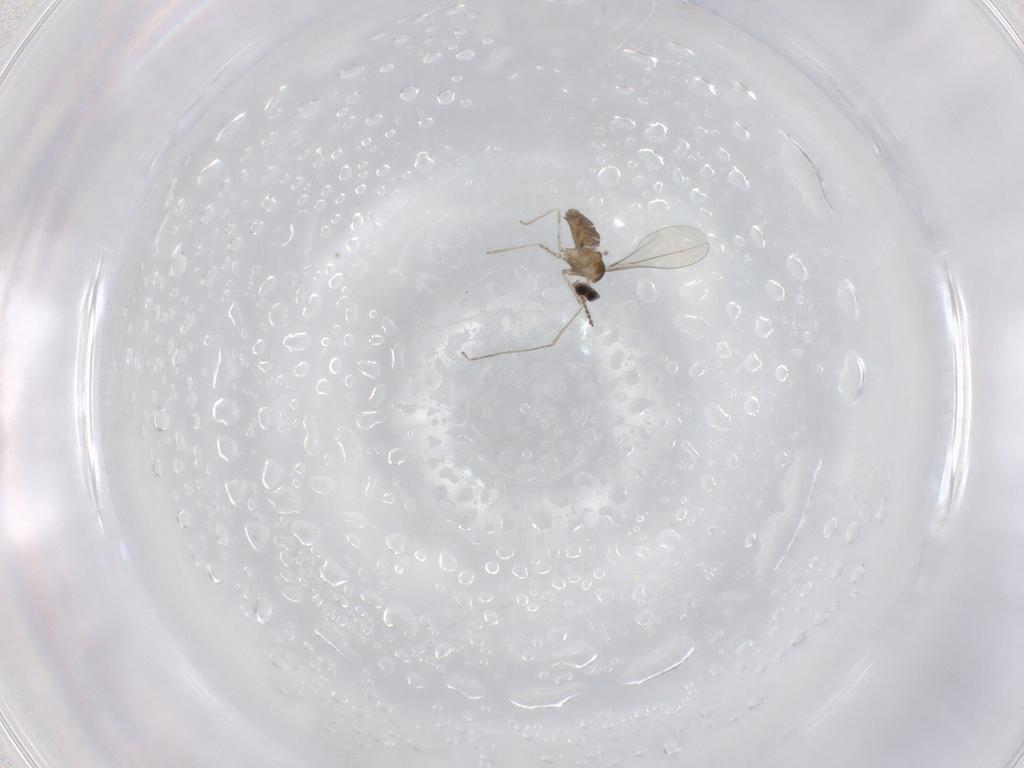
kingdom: Animalia
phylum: Arthropoda
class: Insecta
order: Diptera
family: Cecidomyiidae
